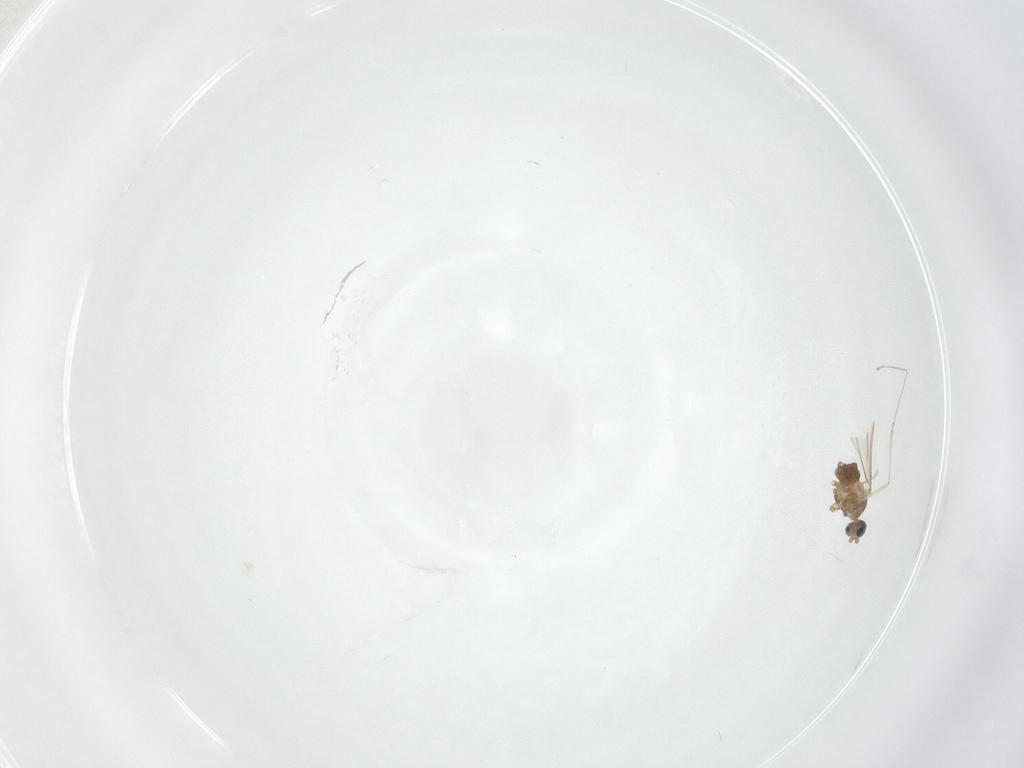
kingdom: Animalia
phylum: Arthropoda
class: Insecta
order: Diptera
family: Cecidomyiidae
